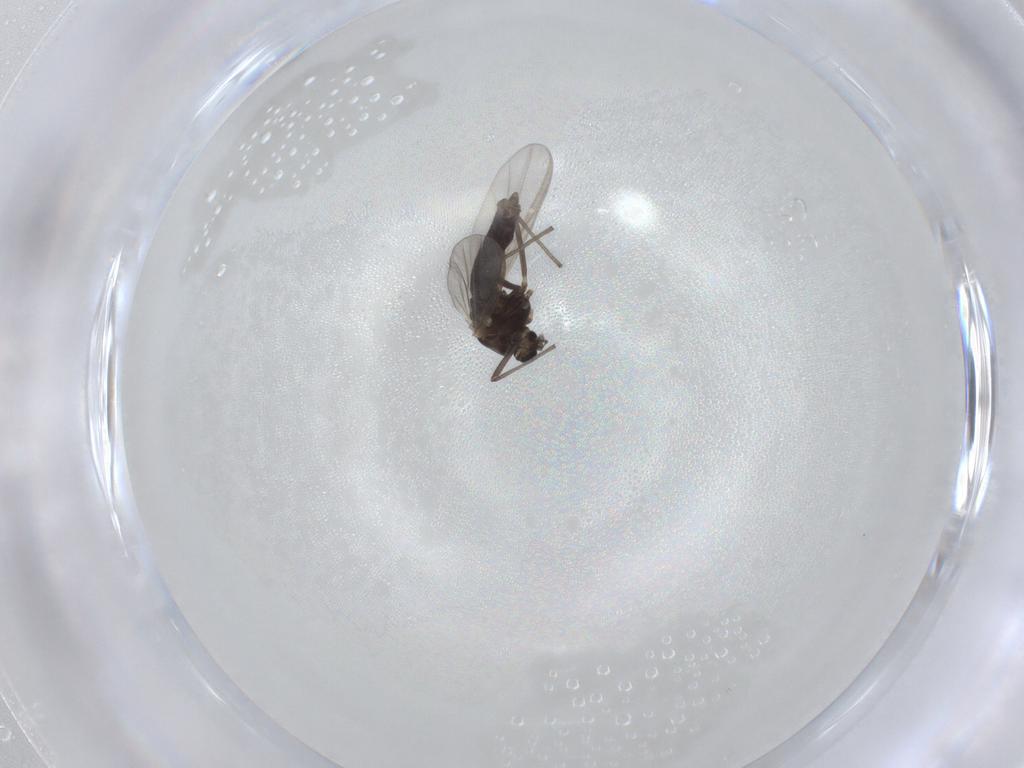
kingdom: Animalia
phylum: Arthropoda
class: Insecta
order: Diptera
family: Chironomidae
